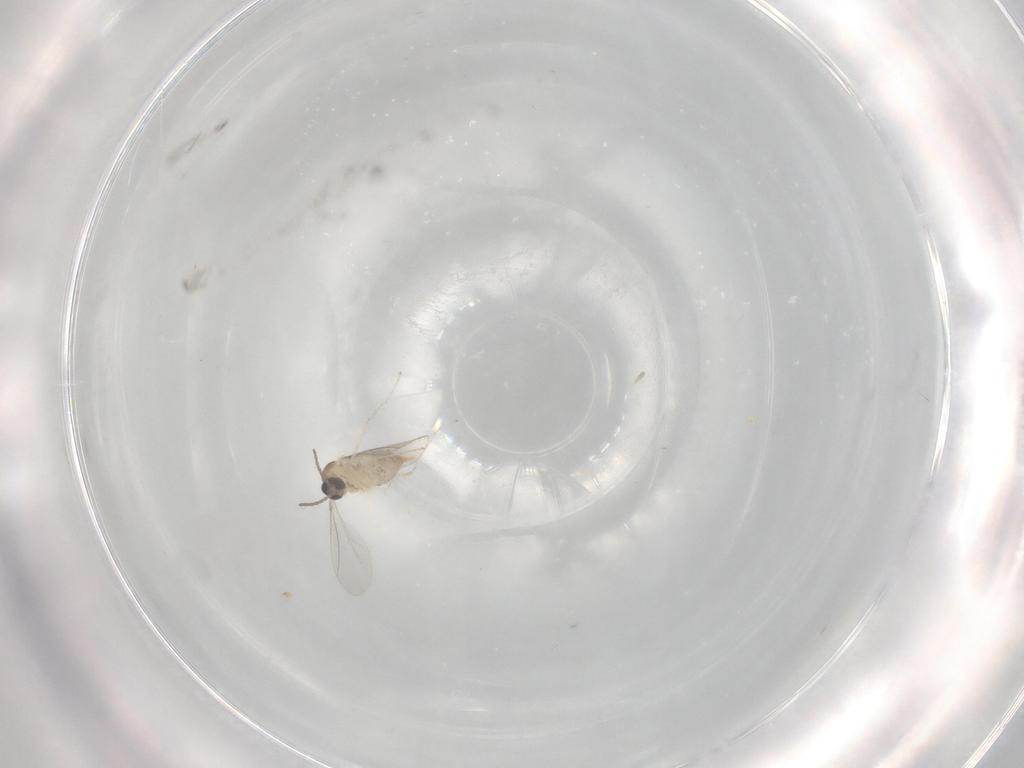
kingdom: Animalia
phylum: Arthropoda
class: Insecta
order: Diptera
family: Cecidomyiidae
